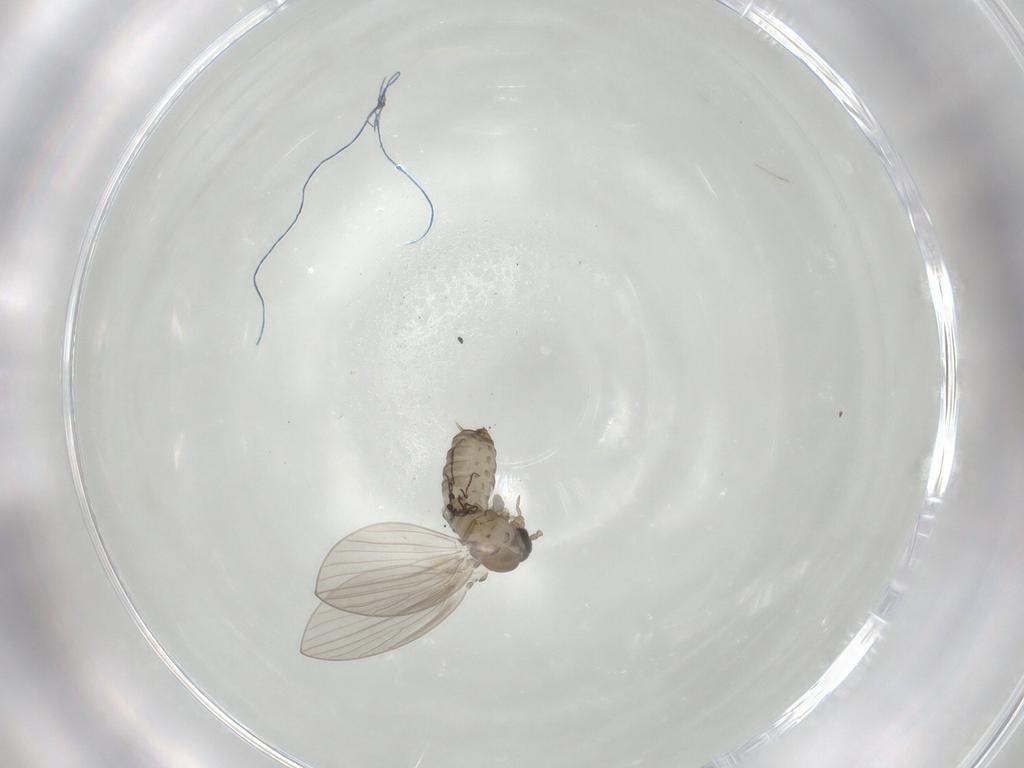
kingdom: Animalia
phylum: Arthropoda
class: Insecta
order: Diptera
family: Psychodidae
